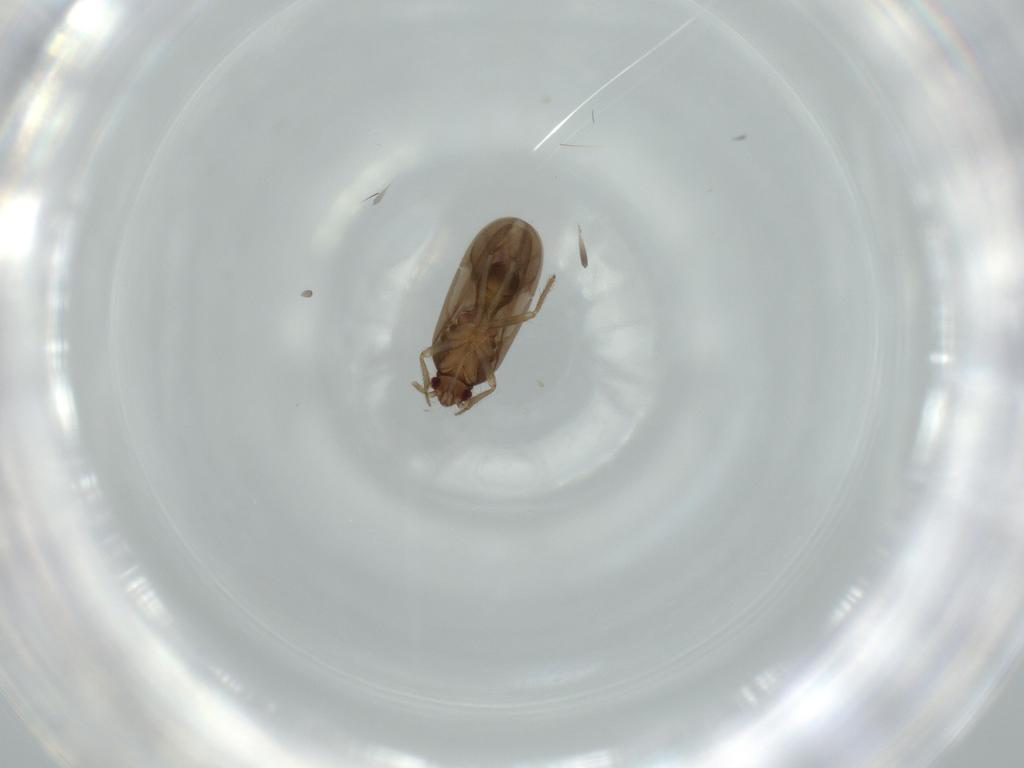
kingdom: Animalia
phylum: Arthropoda
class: Insecta
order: Hemiptera
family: Ceratocombidae
